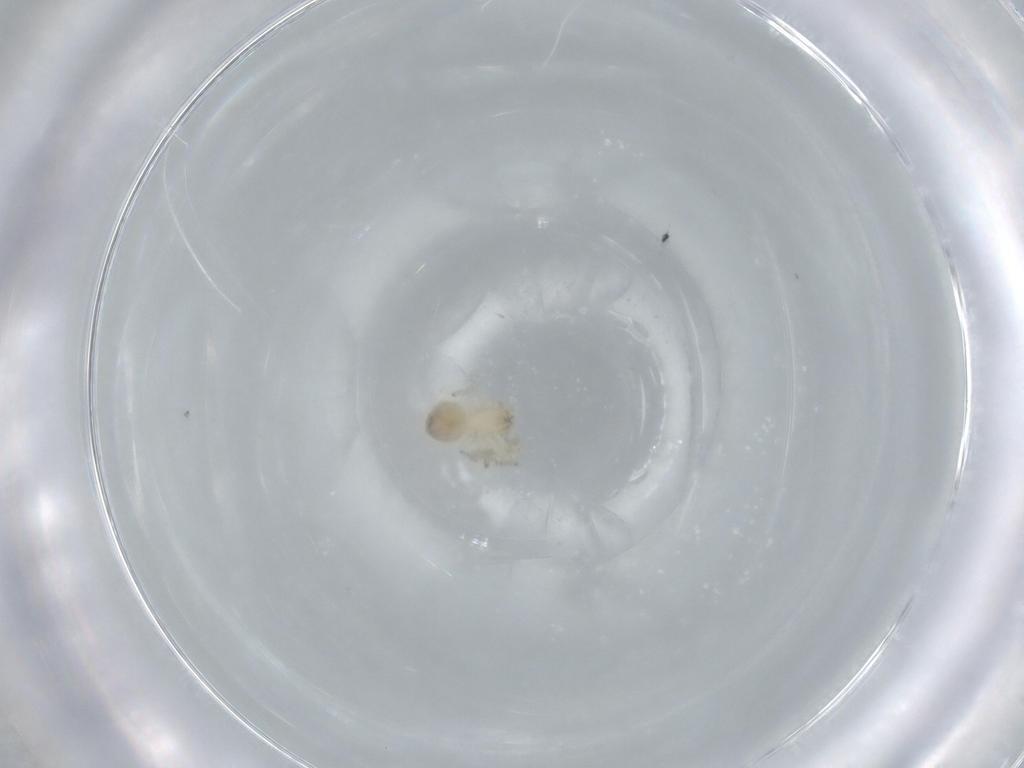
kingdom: Animalia
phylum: Arthropoda
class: Arachnida
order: Araneae
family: Oonopidae
